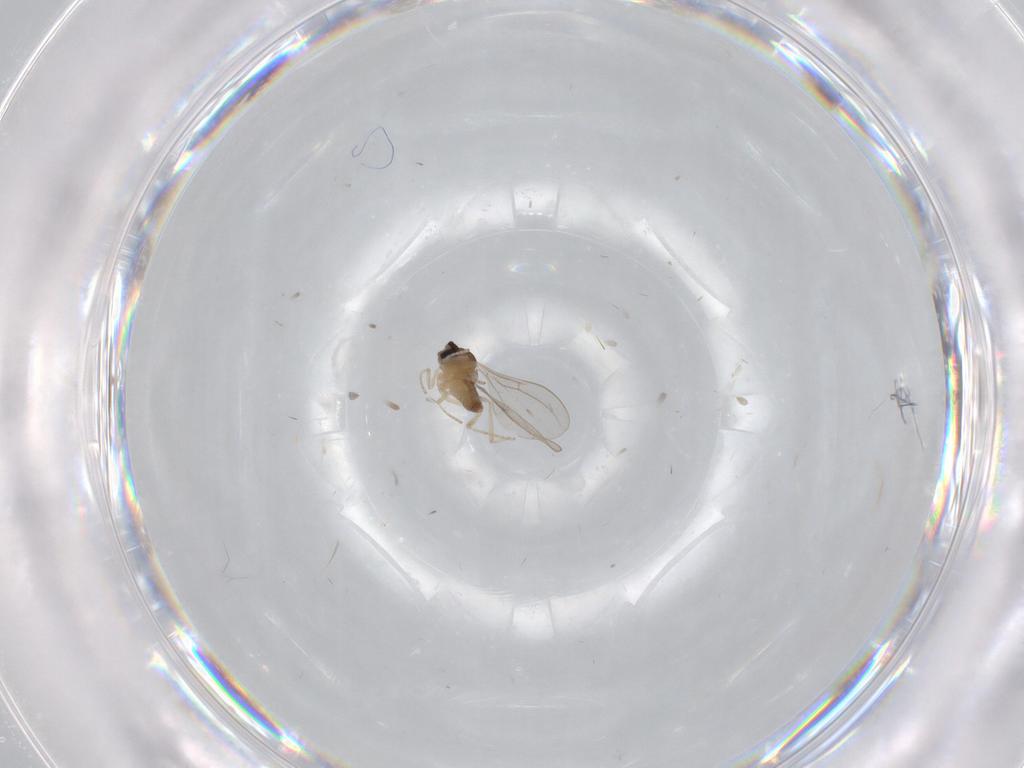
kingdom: Animalia
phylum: Arthropoda
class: Insecta
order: Diptera
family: Cecidomyiidae
